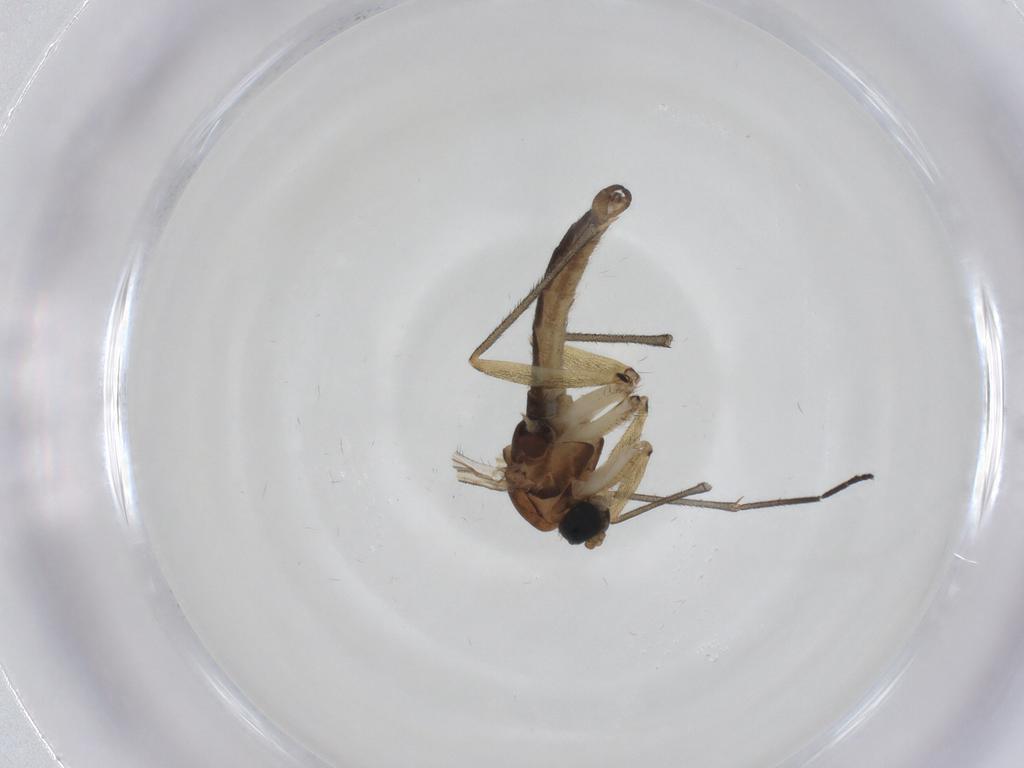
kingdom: Animalia
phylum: Arthropoda
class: Insecta
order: Diptera
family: Sciaridae
